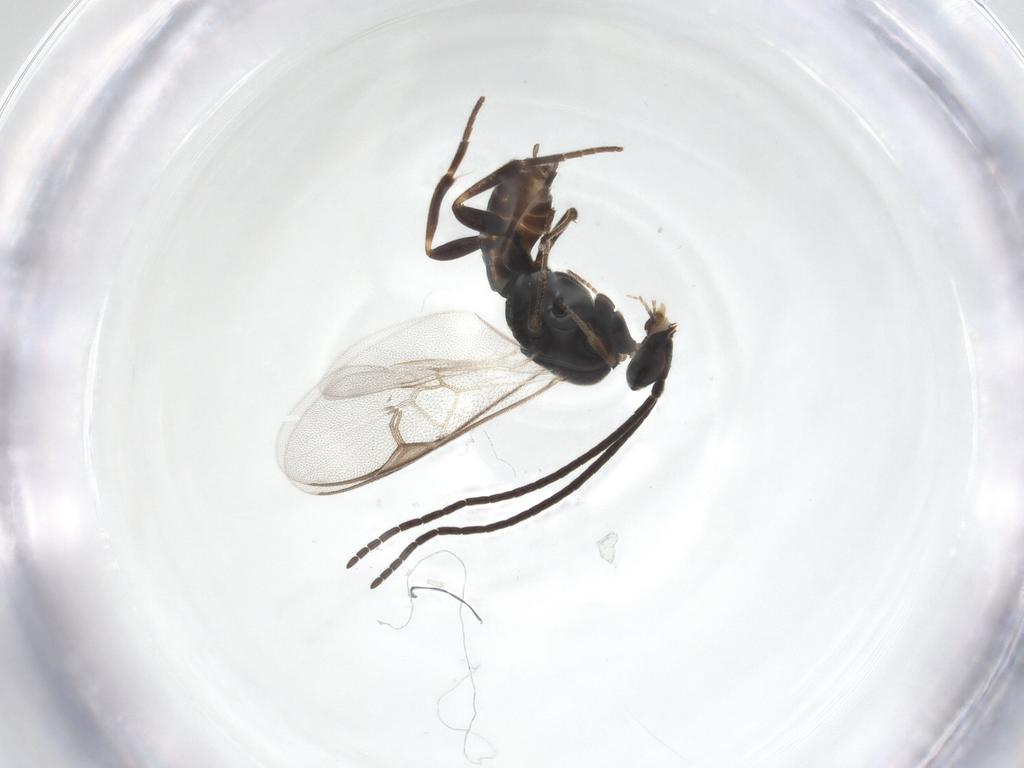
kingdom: Animalia
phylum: Arthropoda
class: Insecta
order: Hymenoptera
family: Braconidae
